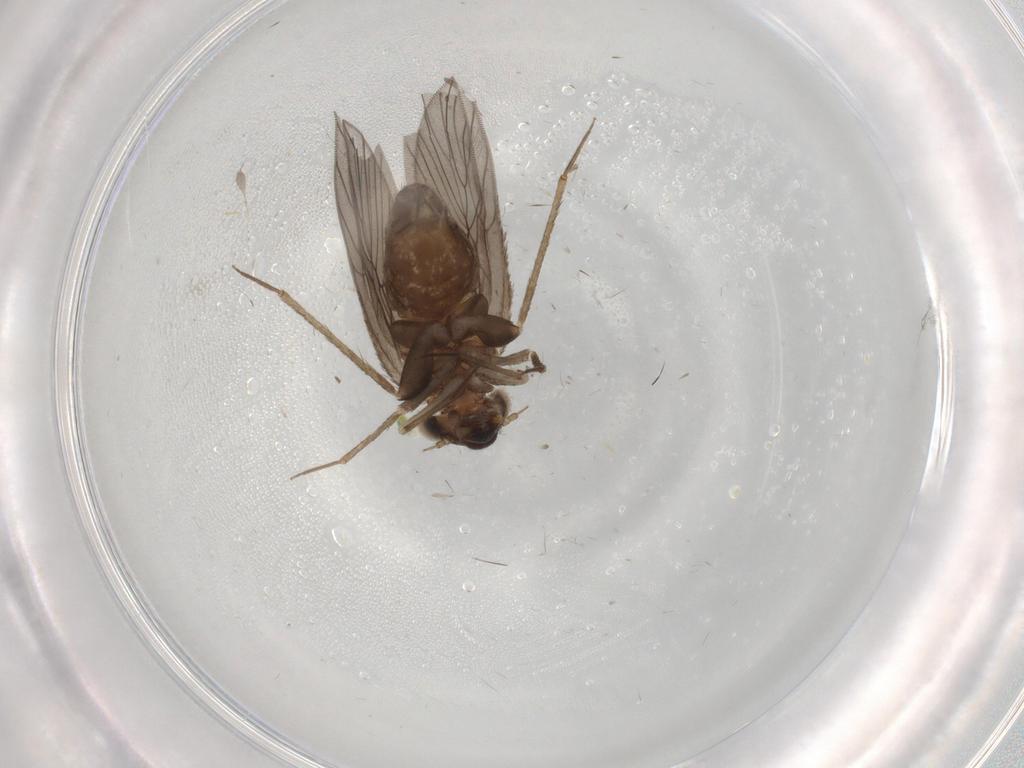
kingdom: Animalia
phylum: Arthropoda
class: Insecta
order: Psocodea
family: Lepidopsocidae
